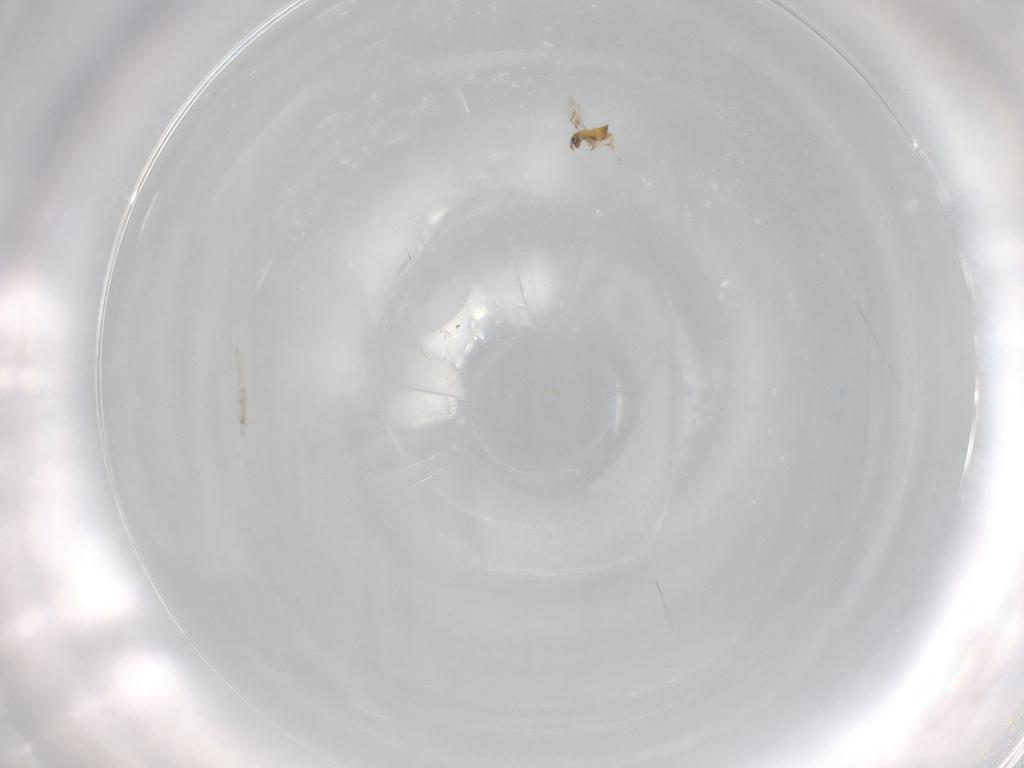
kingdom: Animalia
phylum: Arthropoda
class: Insecta
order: Hymenoptera
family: Trichogrammatidae
